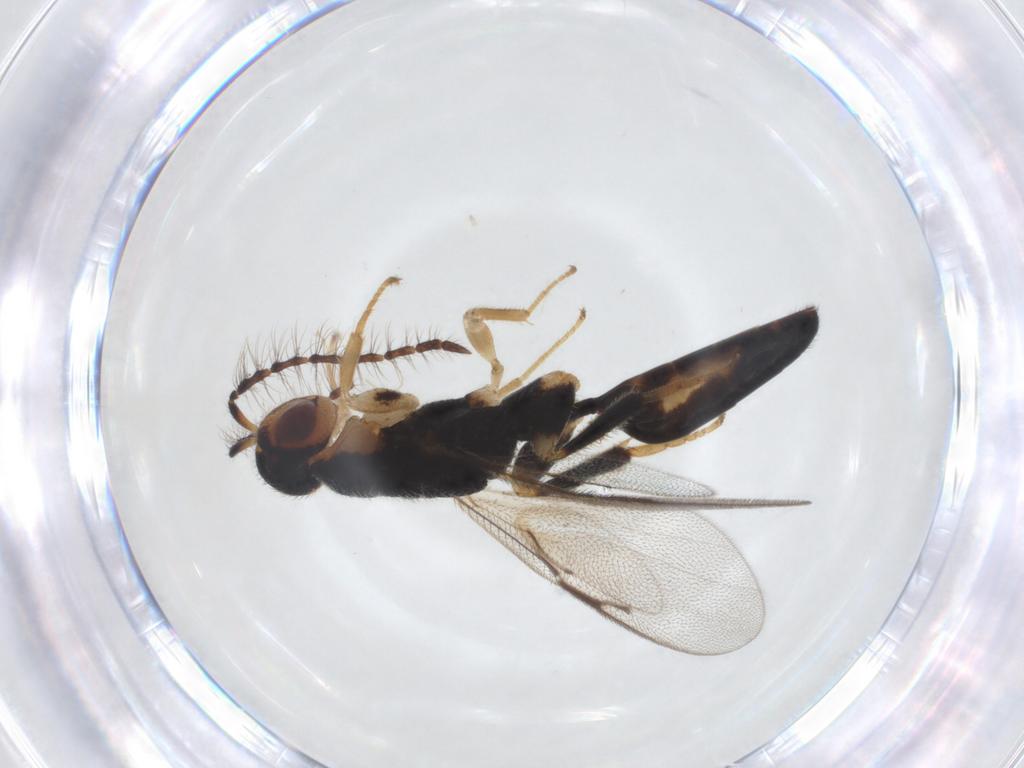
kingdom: Animalia
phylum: Arthropoda
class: Insecta
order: Hymenoptera
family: Eurytomidae
